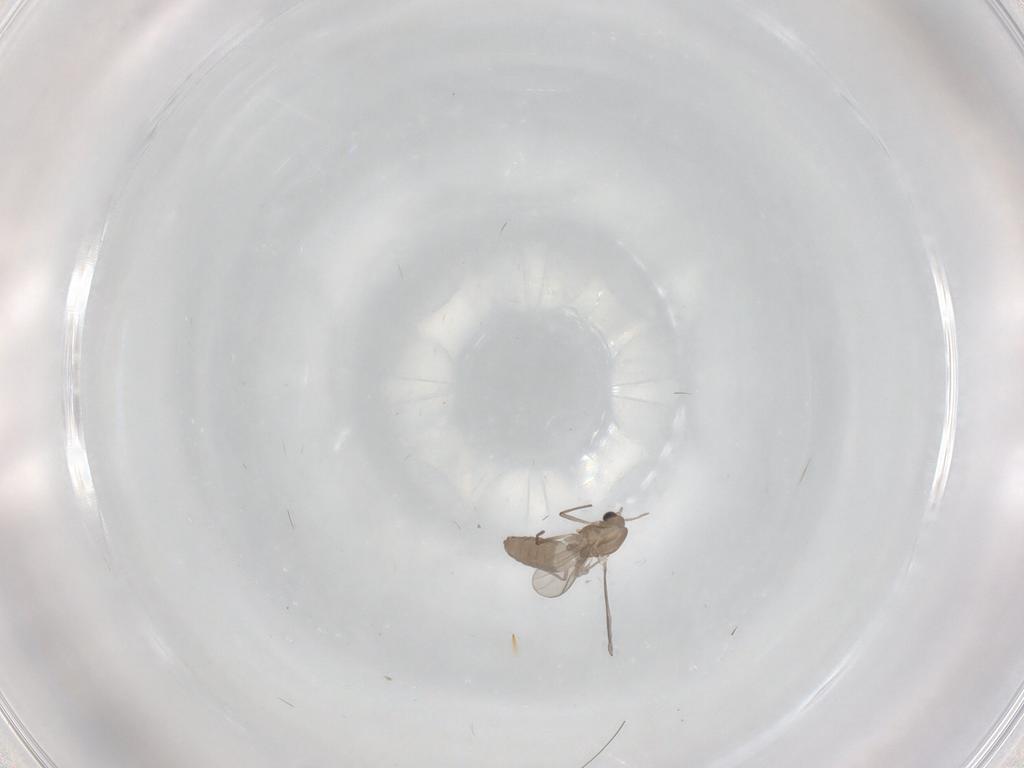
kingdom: Animalia
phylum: Arthropoda
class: Insecta
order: Diptera
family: Chironomidae
